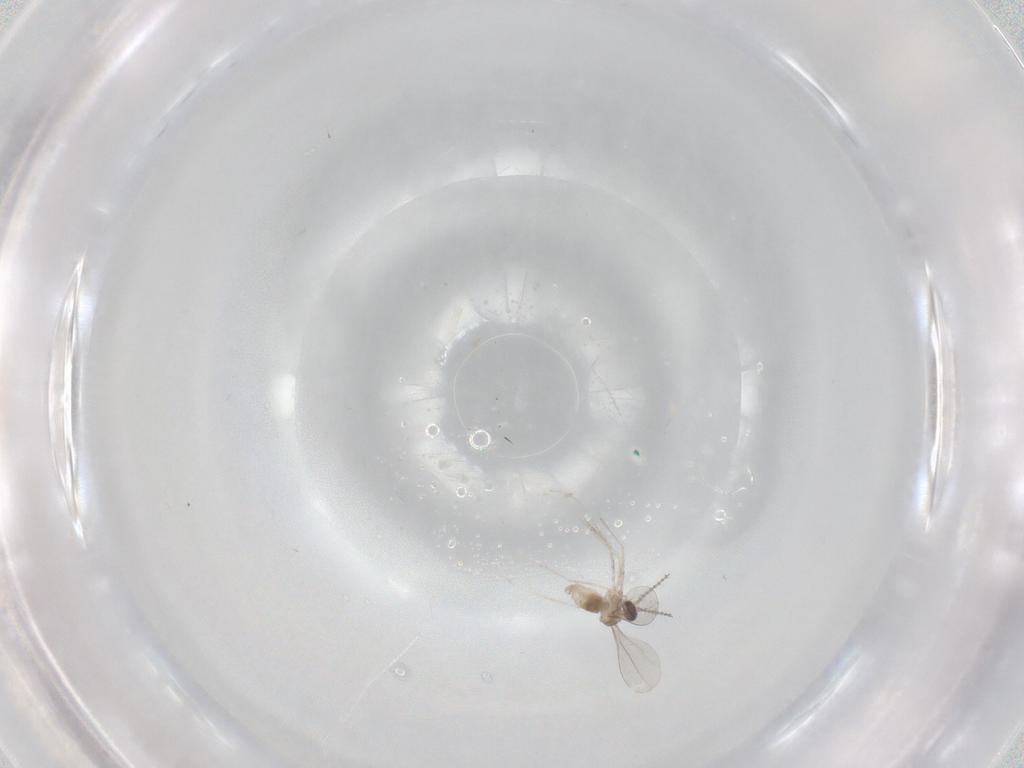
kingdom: Animalia
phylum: Arthropoda
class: Insecta
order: Diptera
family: Sciaridae
